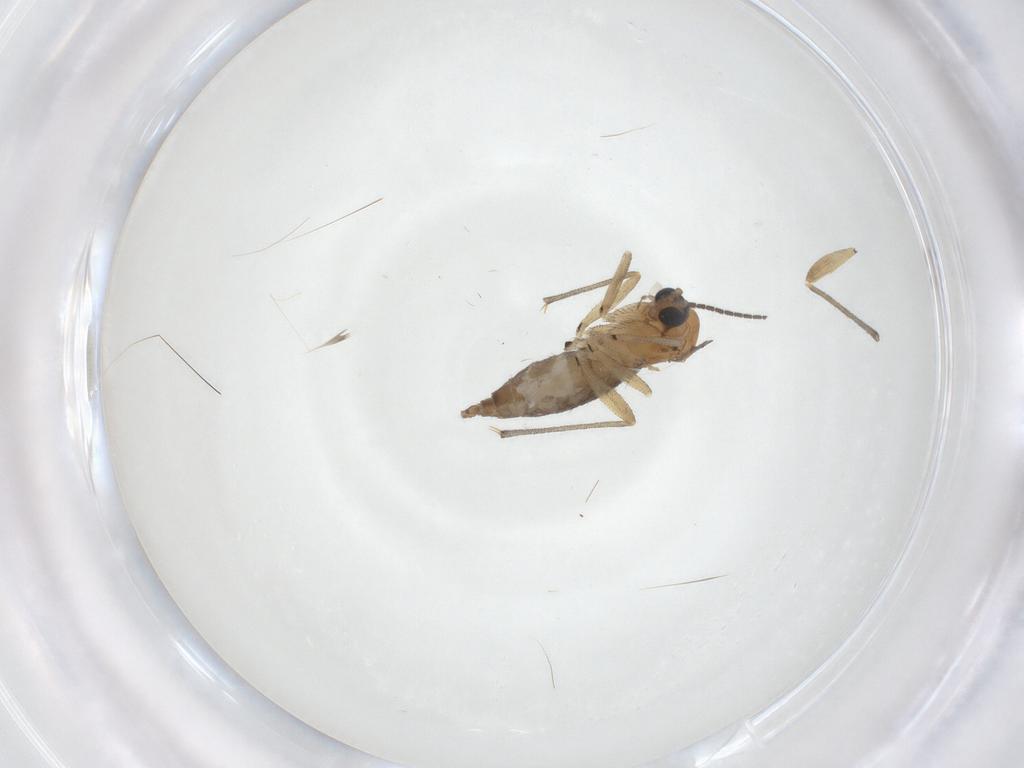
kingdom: Animalia
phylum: Arthropoda
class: Insecta
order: Diptera
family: Sciaridae
